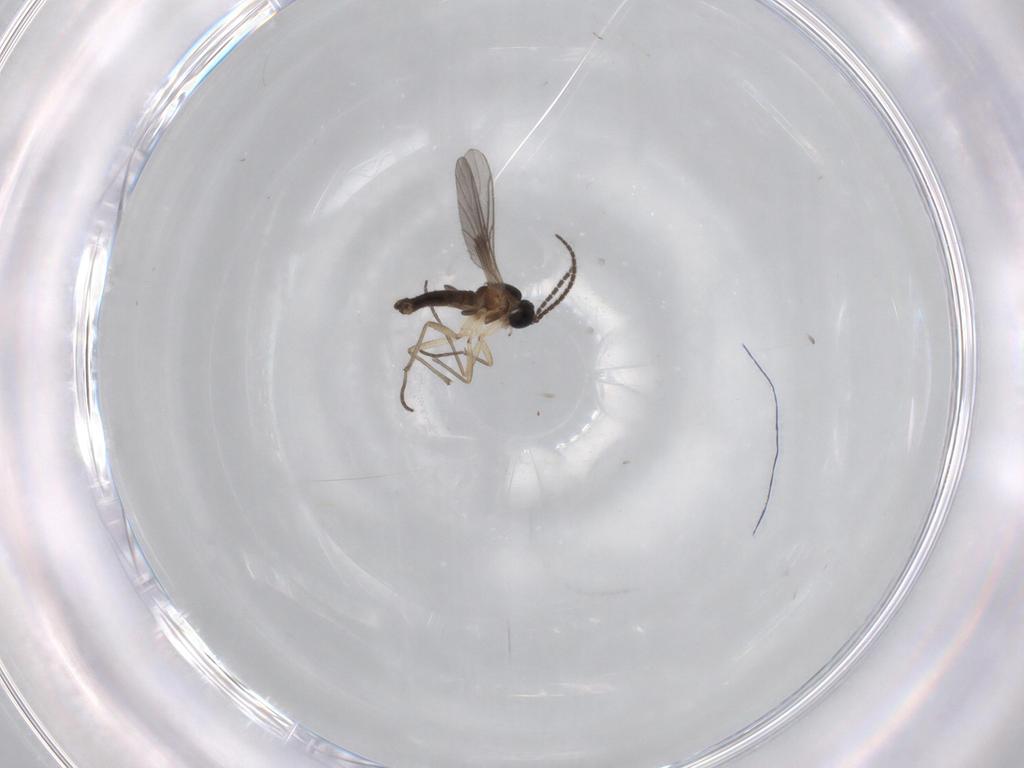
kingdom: Animalia
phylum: Arthropoda
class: Insecta
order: Diptera
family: Sciaridae
